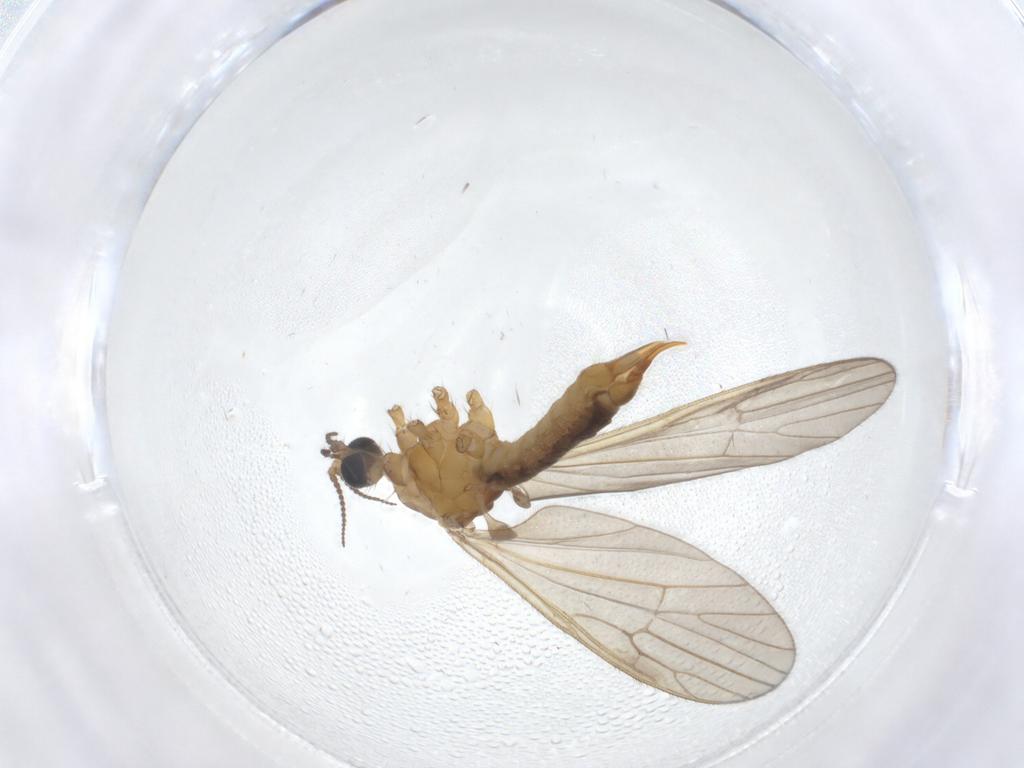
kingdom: Animalia
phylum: Arthropoda
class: Insecta
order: Diptera
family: Limoniidae
